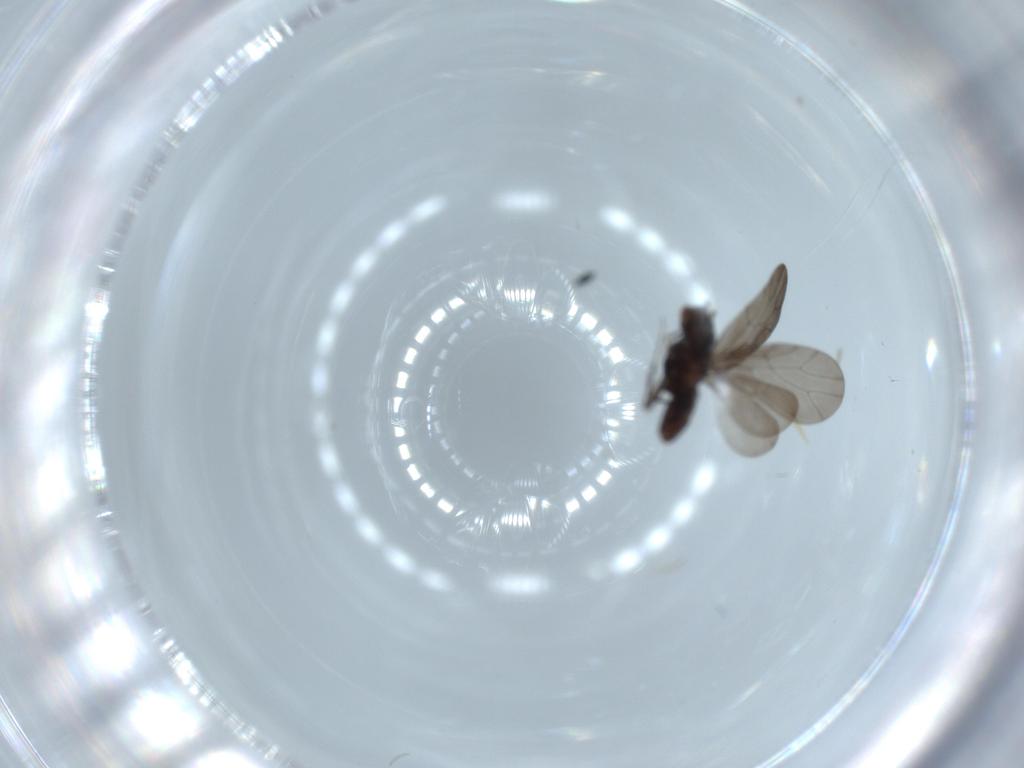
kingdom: Animalia
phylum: Arthropoda
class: Insecta
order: Psocodea
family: Lepidopsocidae
